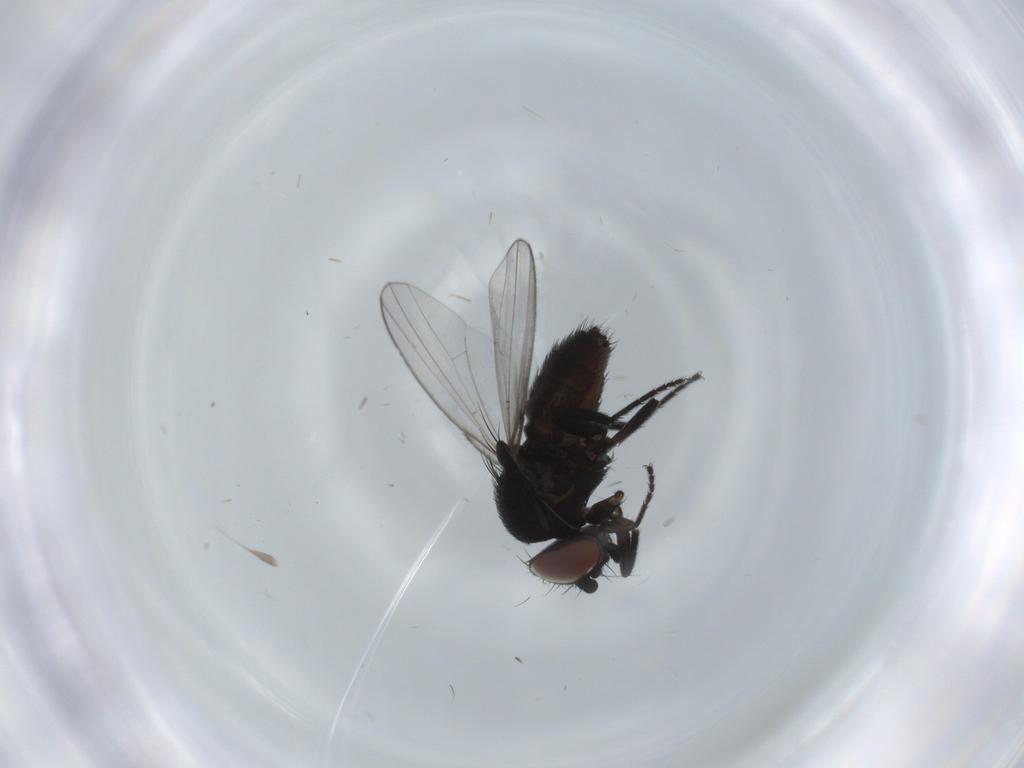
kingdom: Animalia
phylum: Arthropoda
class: Insecta
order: Diptera
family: Milichiidae
